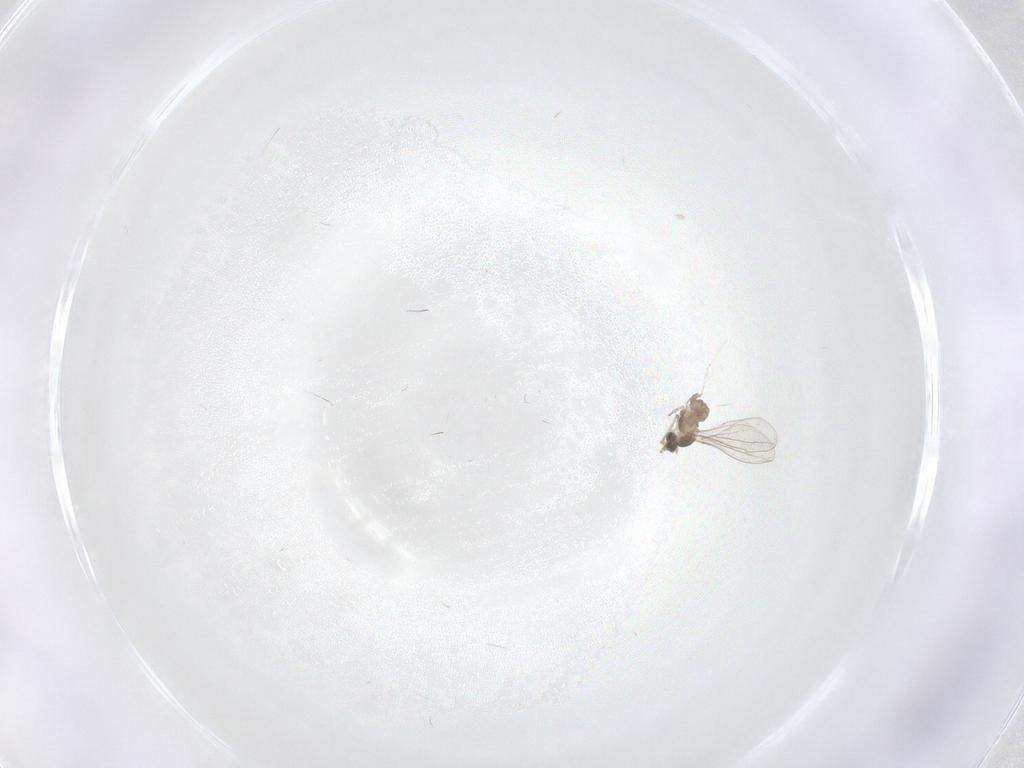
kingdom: Animalia
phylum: Arthropoda
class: Insecta
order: Diptera
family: Cecidomyiidae
